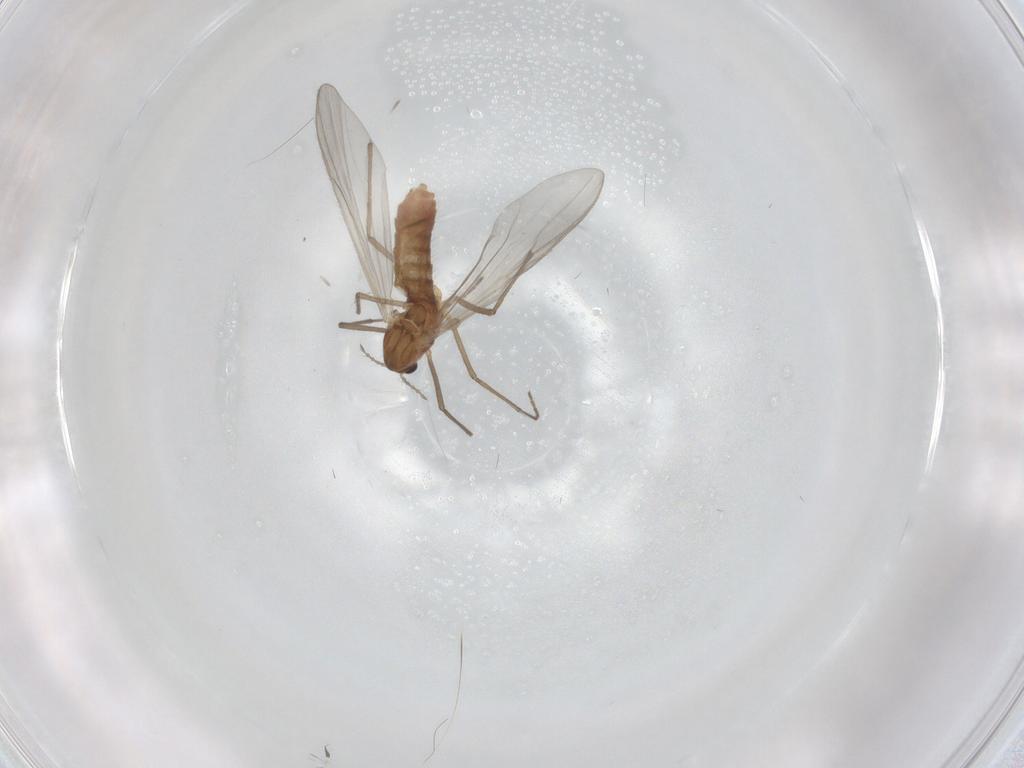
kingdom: Animalia
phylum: Arthropoda
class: Insecta
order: Diptera
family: Chironomidae
